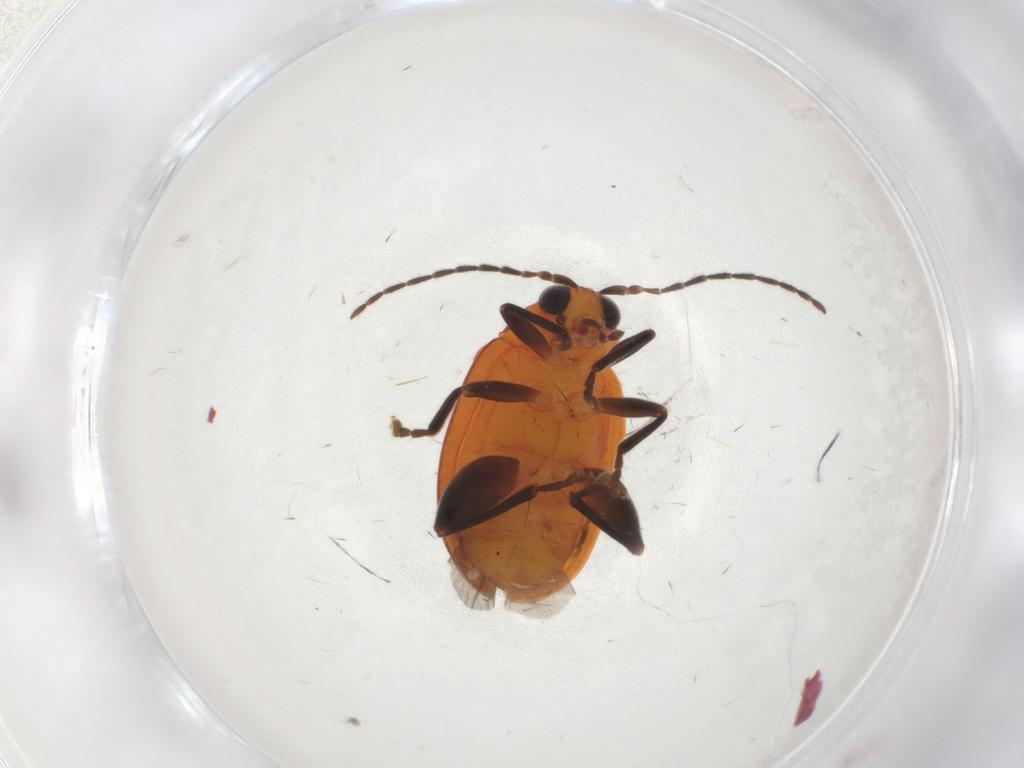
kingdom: Animalia
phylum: Arthropoda
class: Insecta
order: Coleoptera
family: Chrysomelidae
